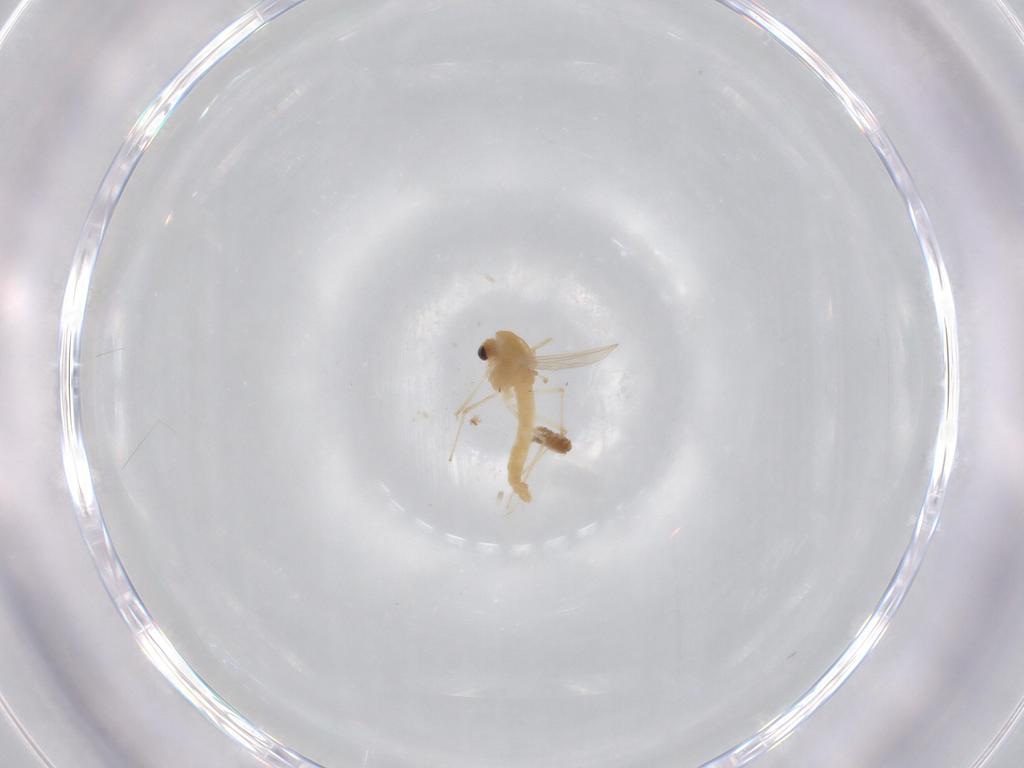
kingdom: Animalia
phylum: Arthropoda
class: Insecta
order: Diptera
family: Chironomidae
